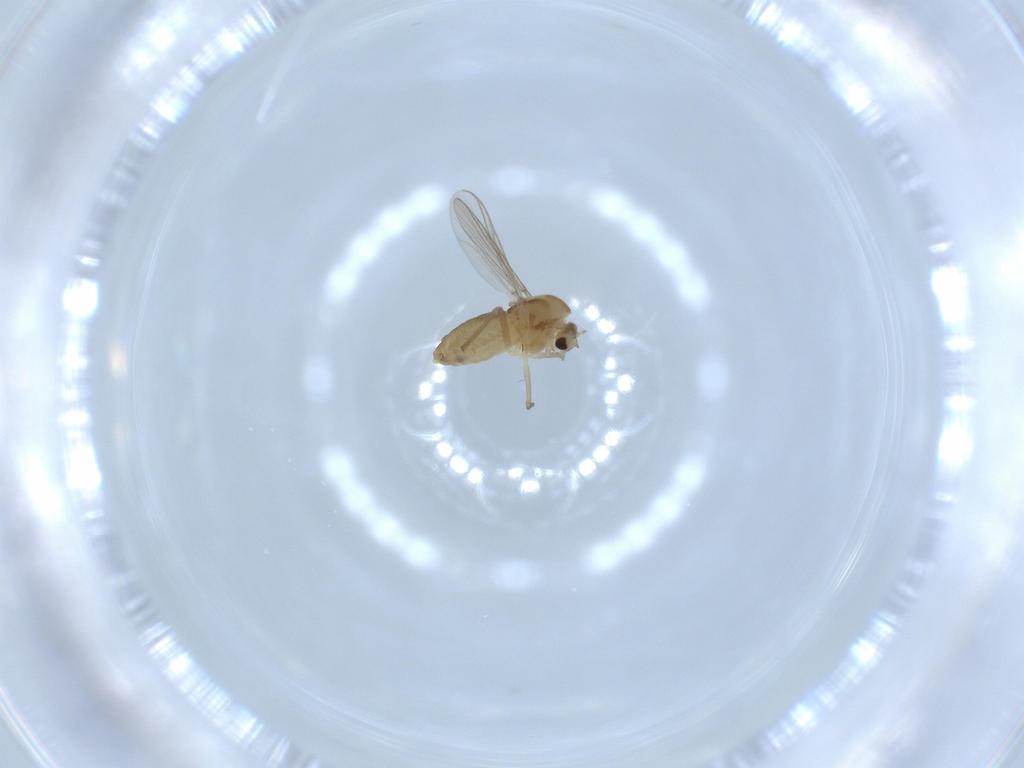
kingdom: Animalia
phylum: Arthropoda
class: Insecta
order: Diptera
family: Chironomidae
